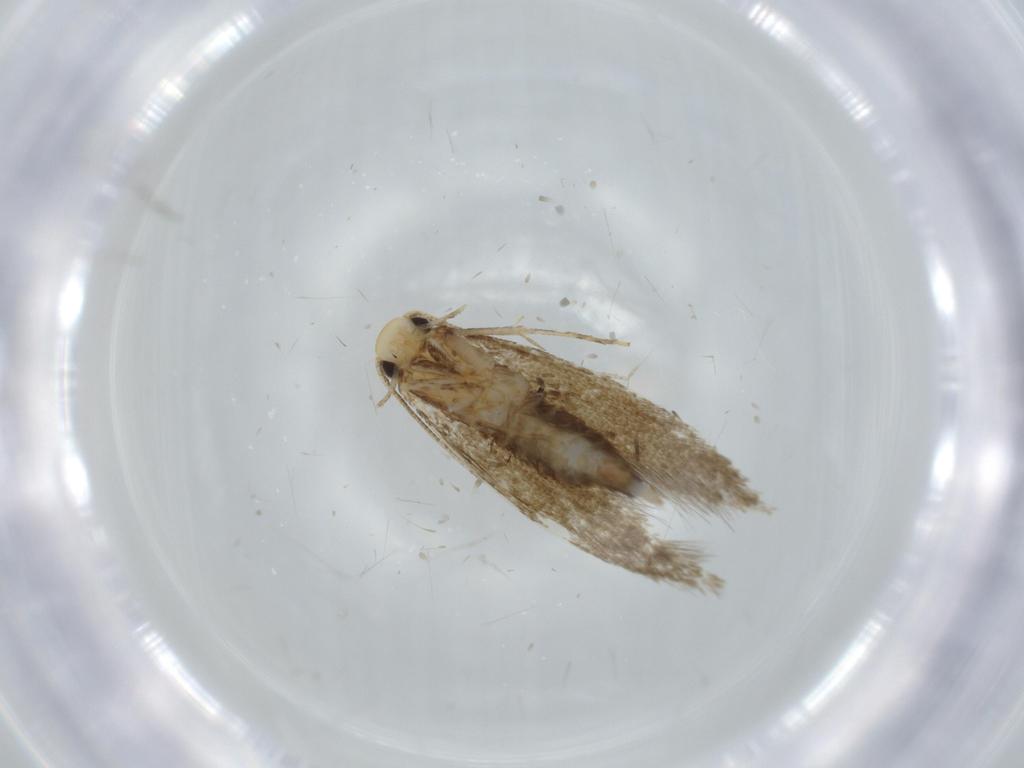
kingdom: Animalia
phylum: Arthropoda
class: Insecta
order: Lepidoptera
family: Tineidae
